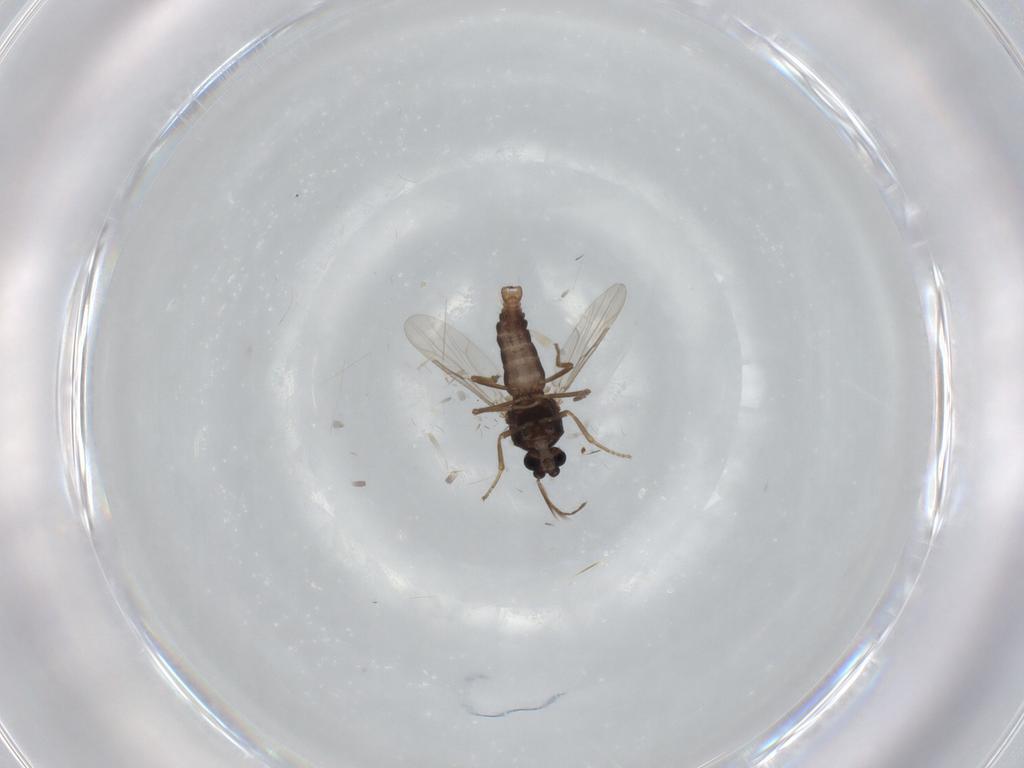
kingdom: Animalia
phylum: Arthropoda
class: Insecta
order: Diptera
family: Ceratopogonidae
